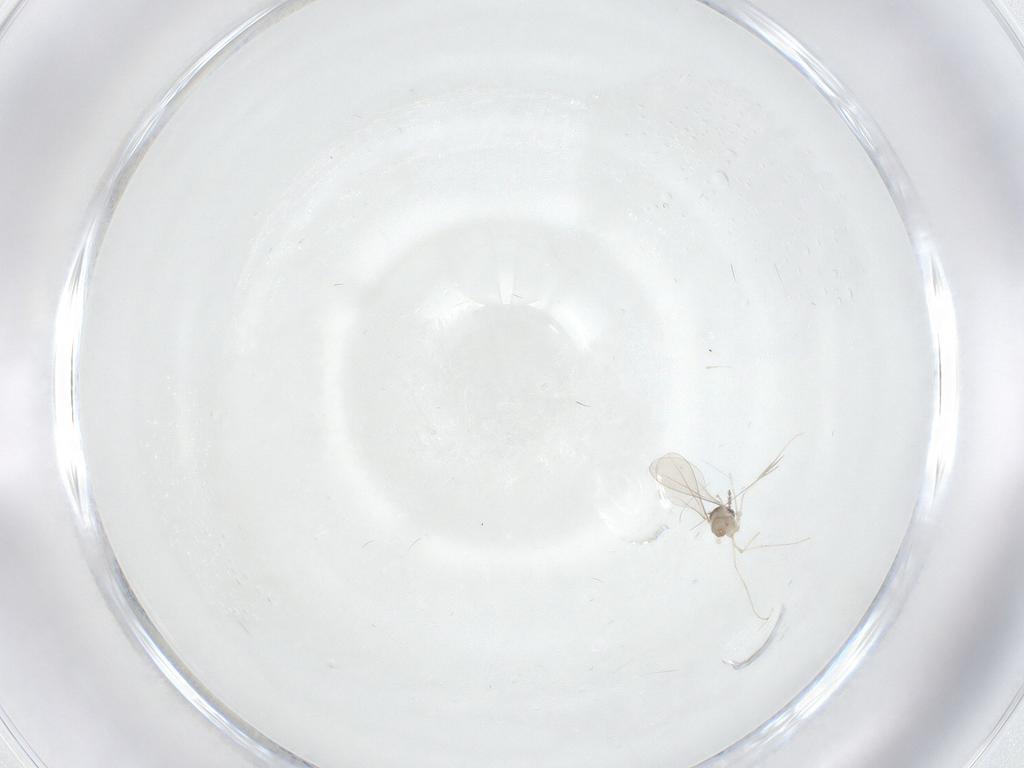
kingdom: Animalia
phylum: Arthropoda
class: Insecta
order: Diptera
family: Cecidomyiidae
